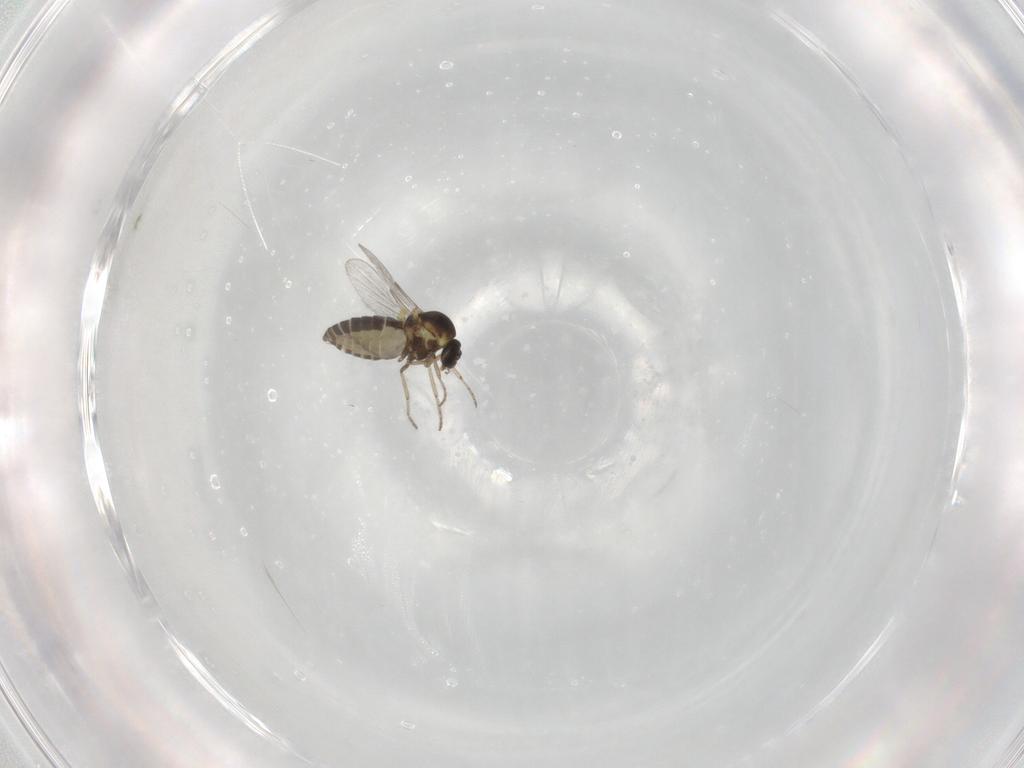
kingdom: Animalia
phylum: Arthropoda
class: Insecta
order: Diptera
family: Ceratopogonidae
